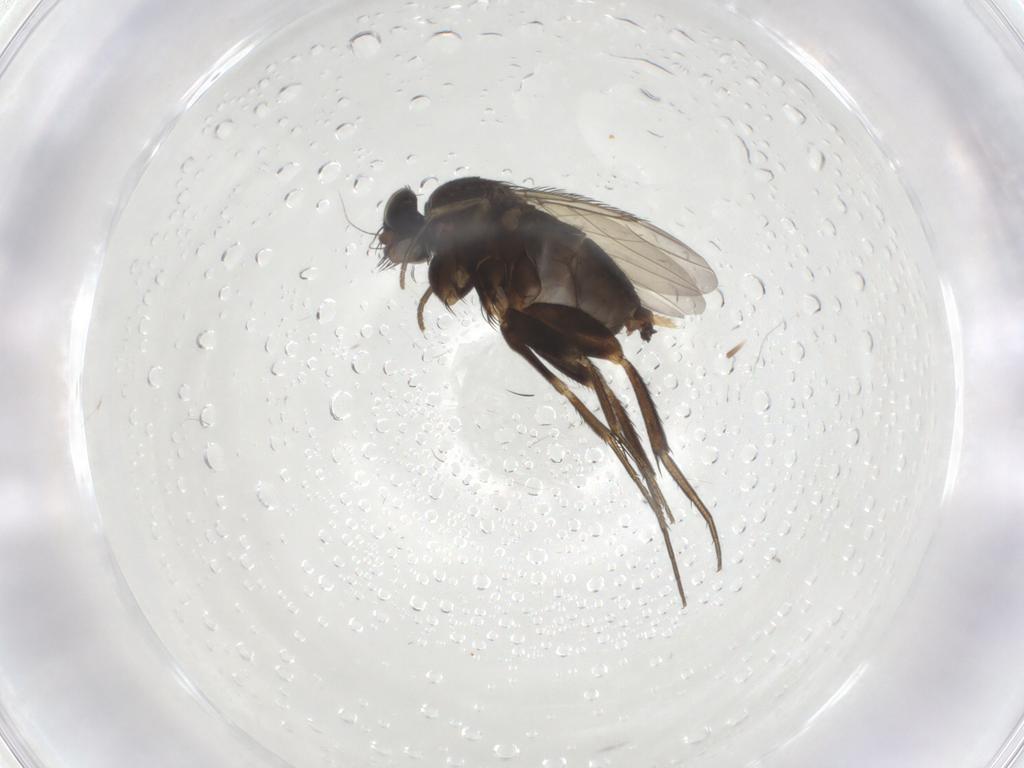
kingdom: Animalia
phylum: Arthropoda
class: Insecta
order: Diptera
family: Phoridae
